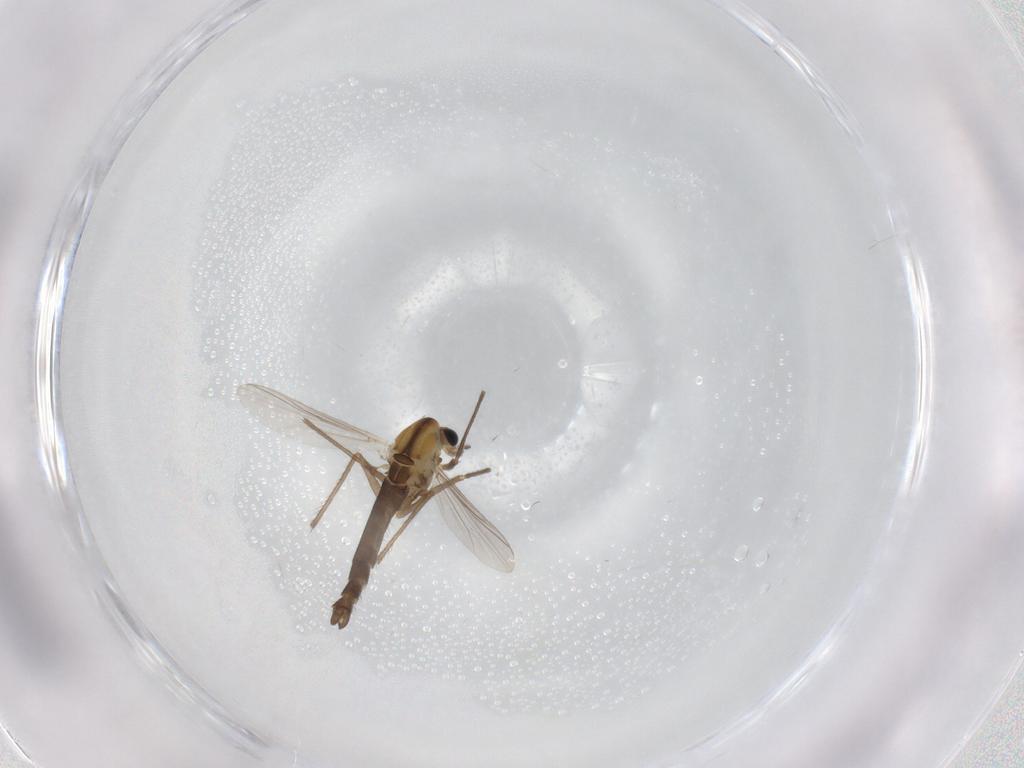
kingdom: Animalia
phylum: Arthropoda
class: Insecta
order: Diptera
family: Chironomidae
